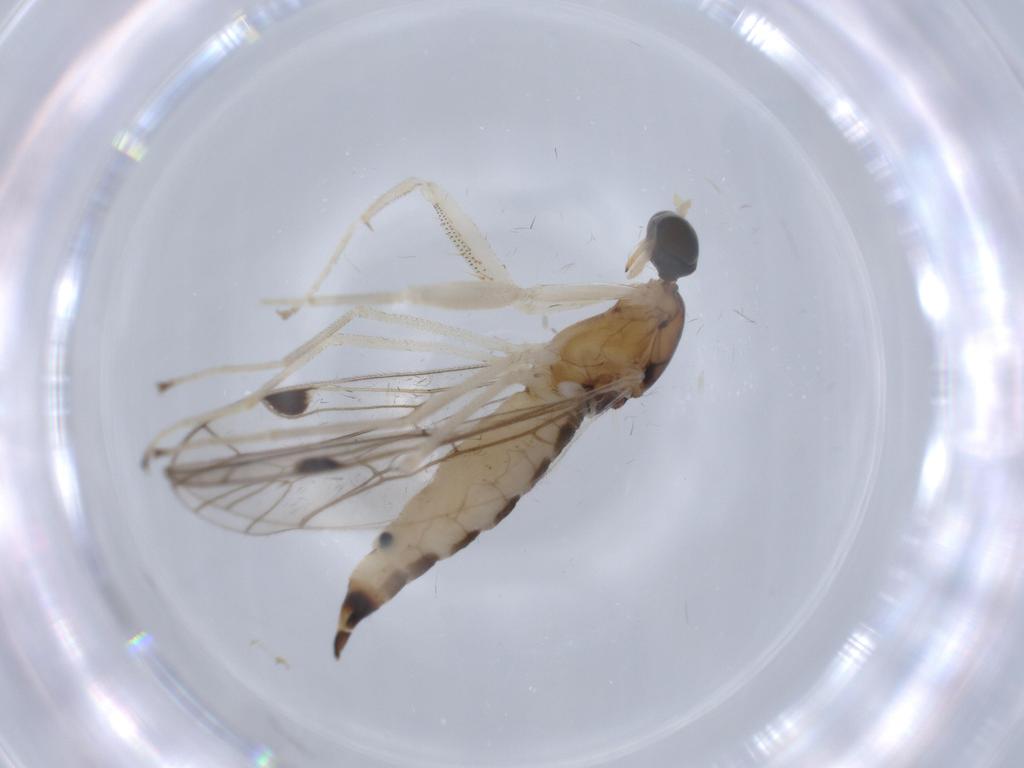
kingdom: Animalia
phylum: Arthropoda
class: Insecta
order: Diptera
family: Empididae
